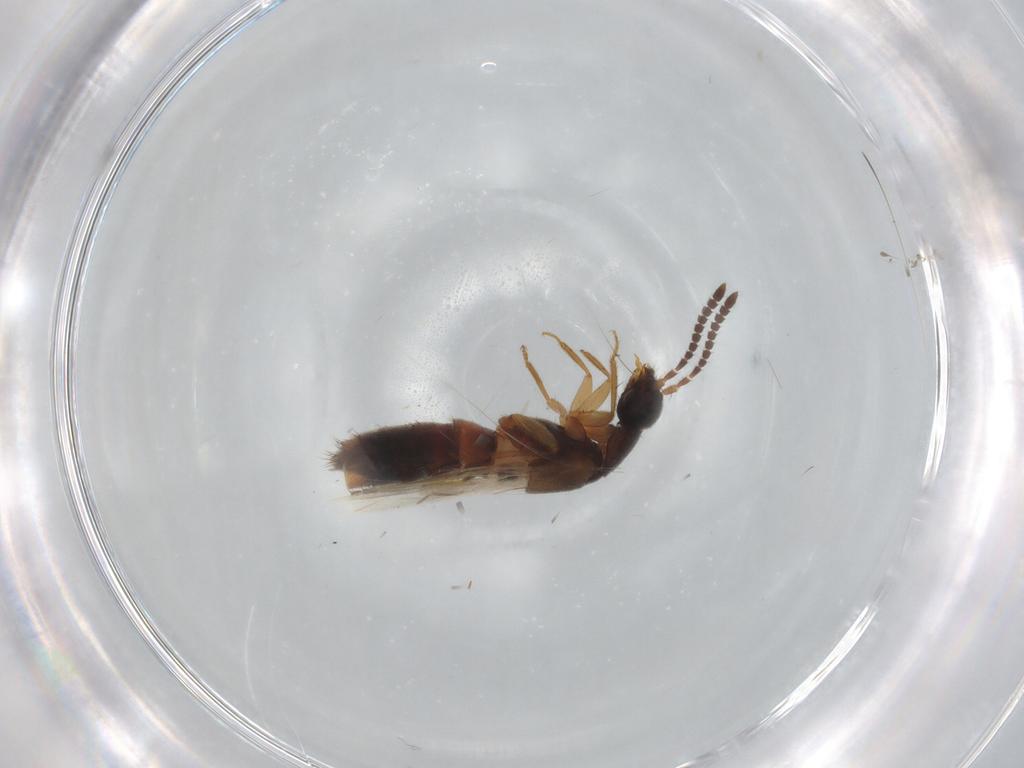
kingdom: Animalia
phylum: Arthropoda
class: Insecta
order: Coleoptera
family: Staphylinidae
